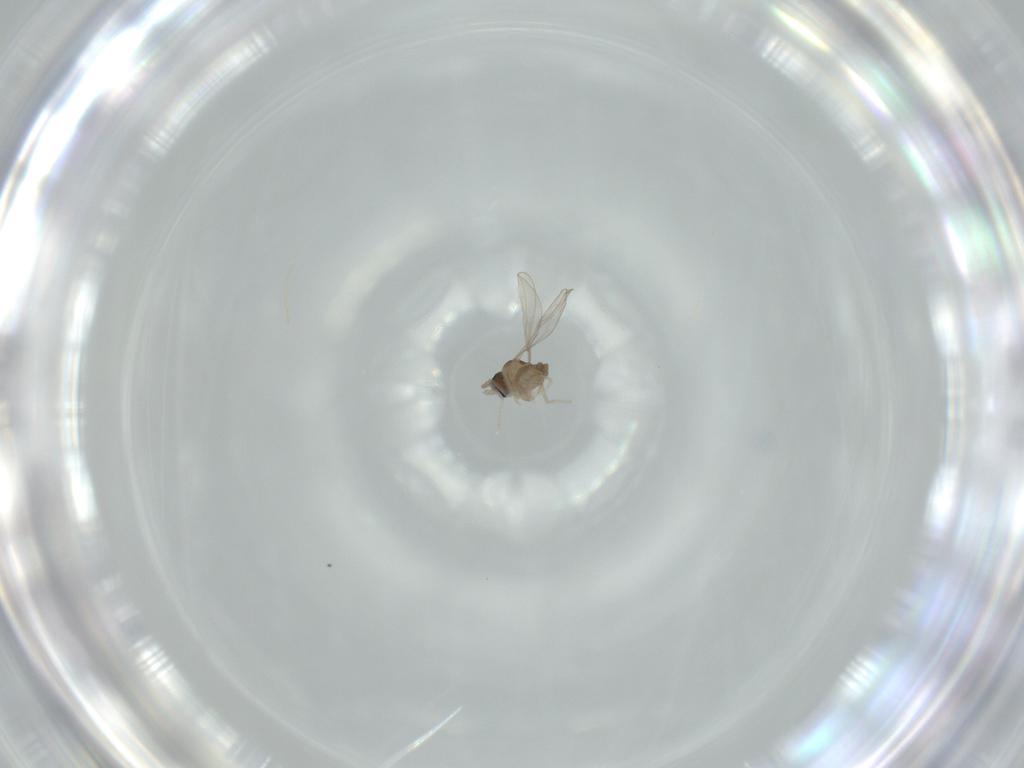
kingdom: Animalia
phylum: Arthropoda
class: Insecta
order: Diptera
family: Cecidomyiidae
